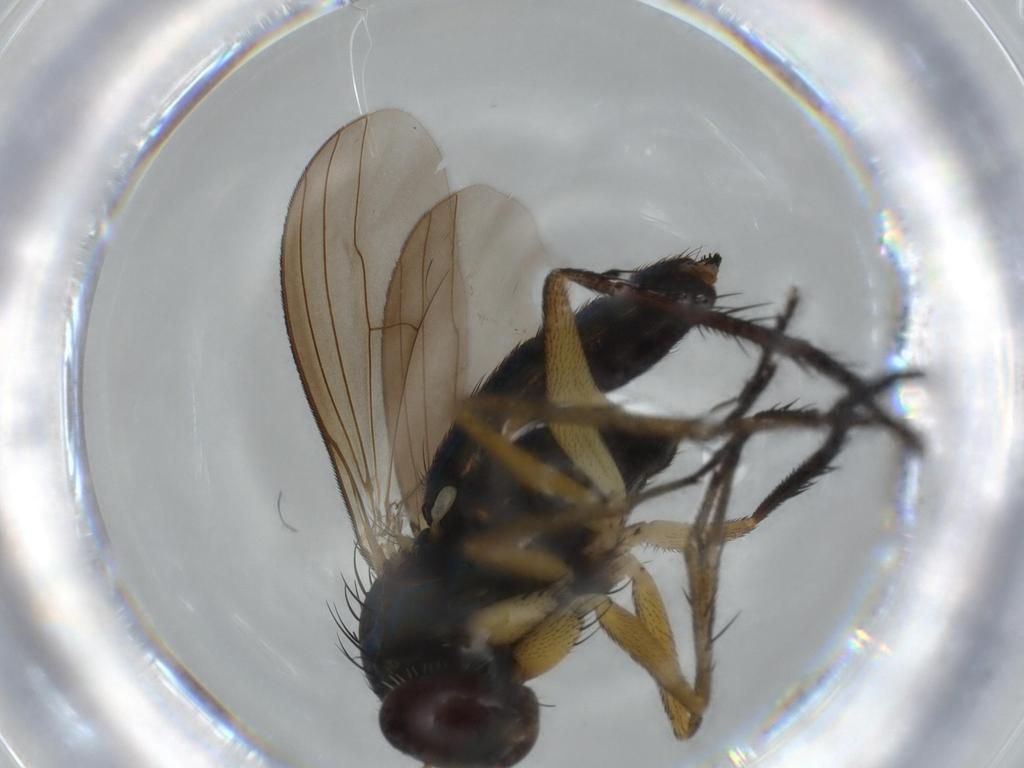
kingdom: Animalia
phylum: Arthropoda
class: Insecta
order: Diptera
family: Dolichopodidae
